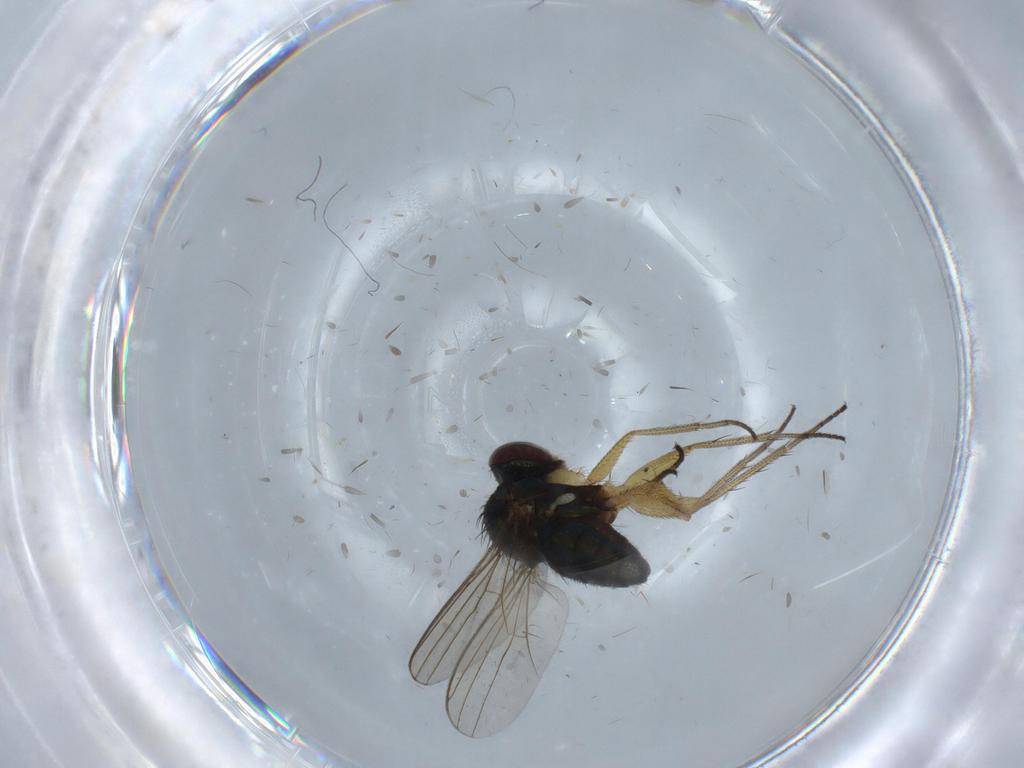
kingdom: Animalia
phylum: Arthropoda
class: Insecta
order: Diptera
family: Dolichopodidae
